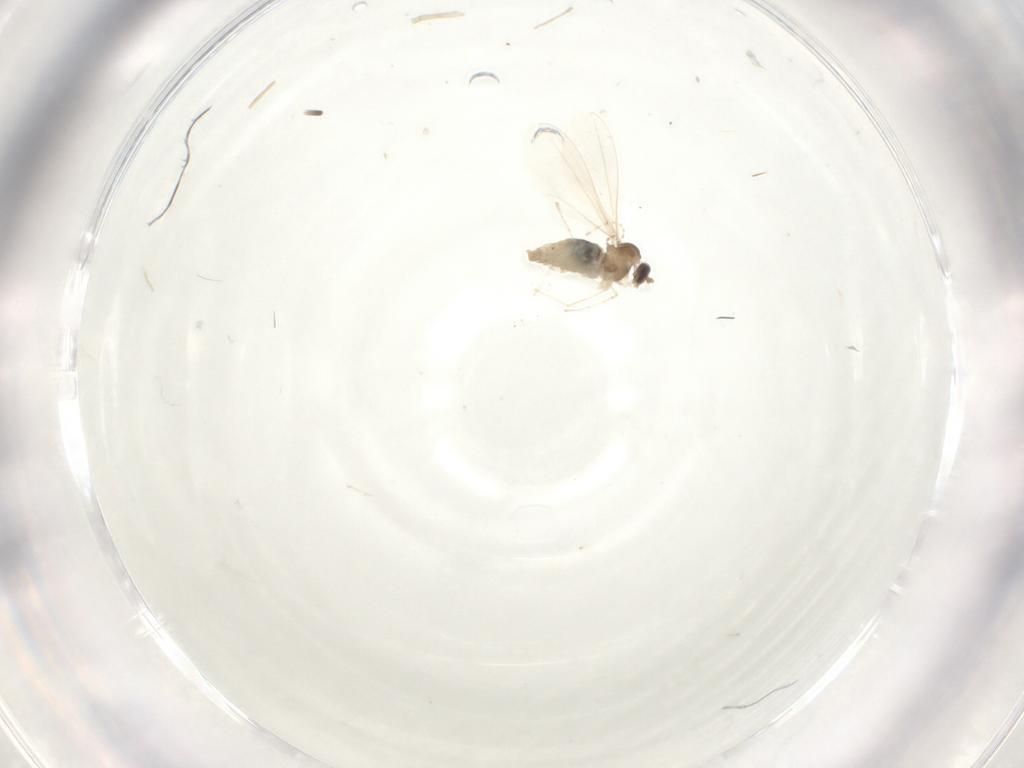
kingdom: Animalia
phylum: Arthropoda
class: Insecta
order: Diptera
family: Cecidomyiidae
